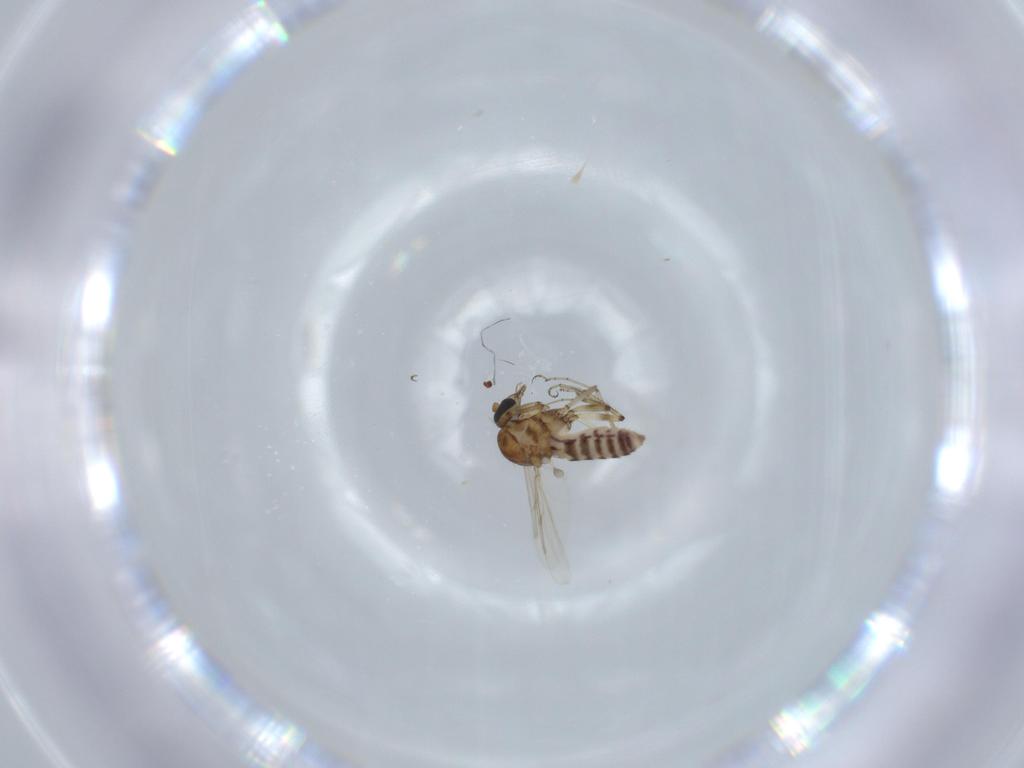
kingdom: Animalia
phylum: Arthropoda
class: Insecta
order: Diptera
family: Ceratopogonidae
